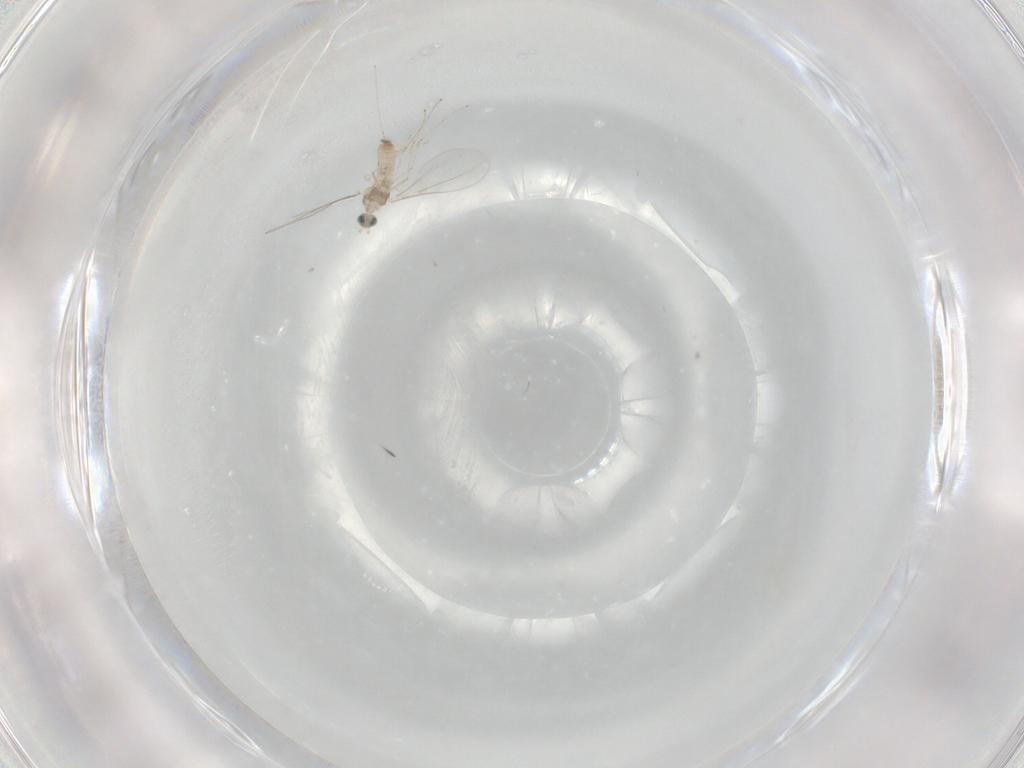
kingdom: Animalia
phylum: Arthropoda
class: Insecta
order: Diptera
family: Cecidomyiidae
